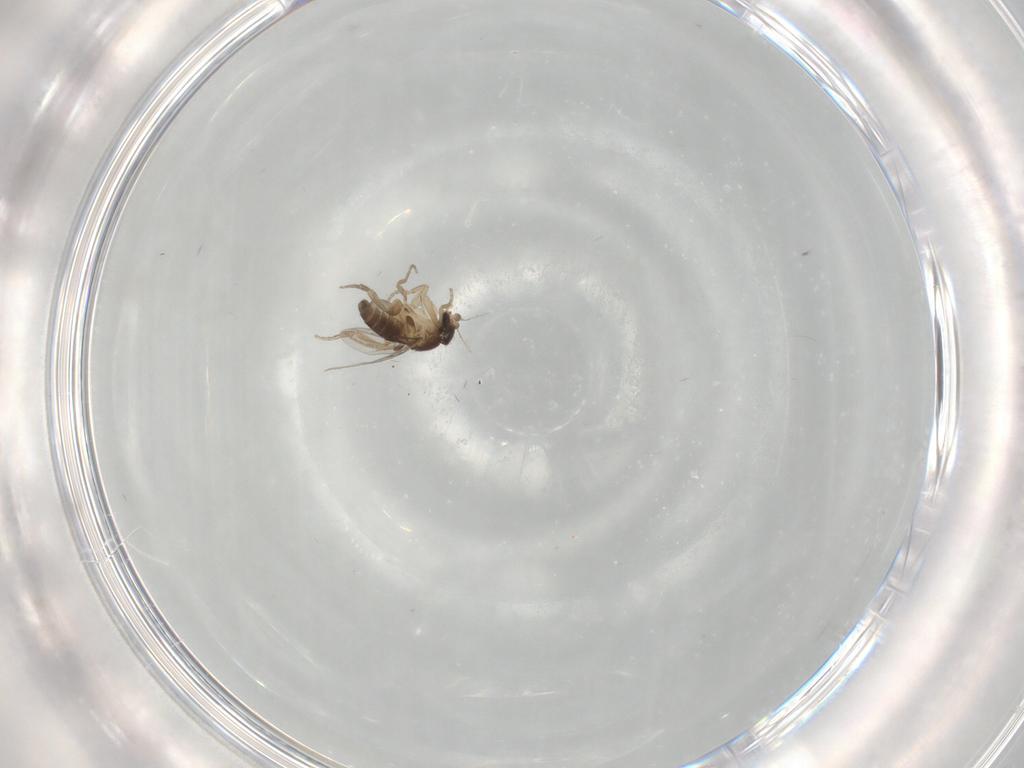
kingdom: Animalia
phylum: Arthropoda
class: Insecta
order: Diptera
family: Phoridae
